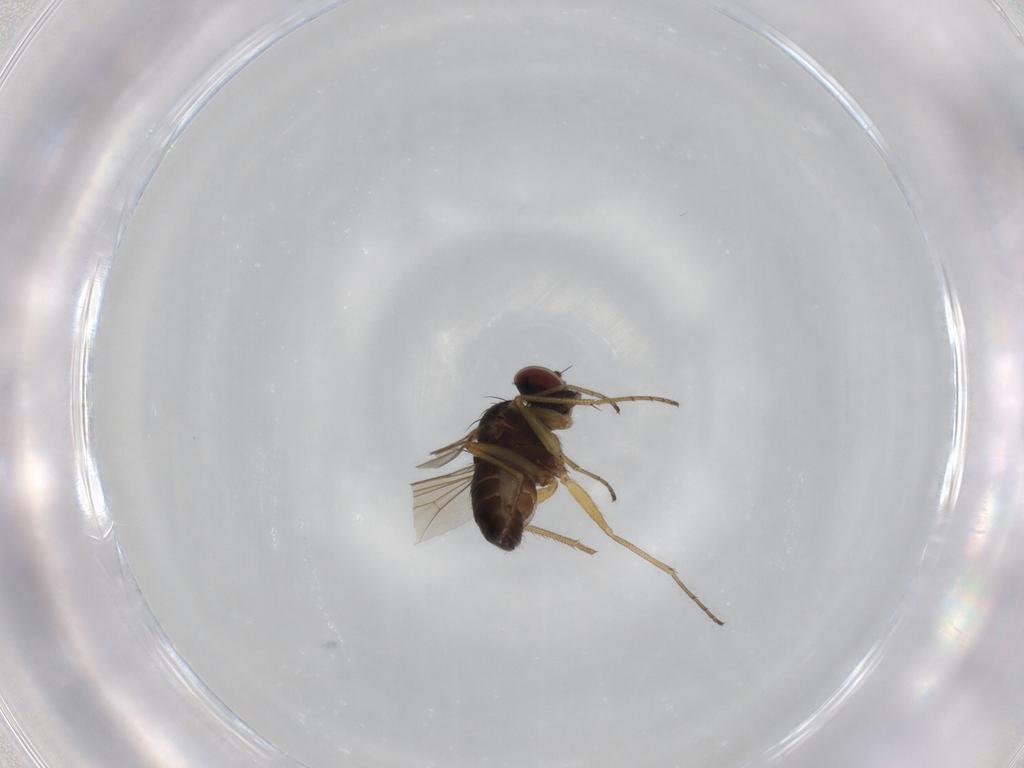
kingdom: Animalia
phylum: Arthropoda
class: Insecta
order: Diptera
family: Dolichopodidae
